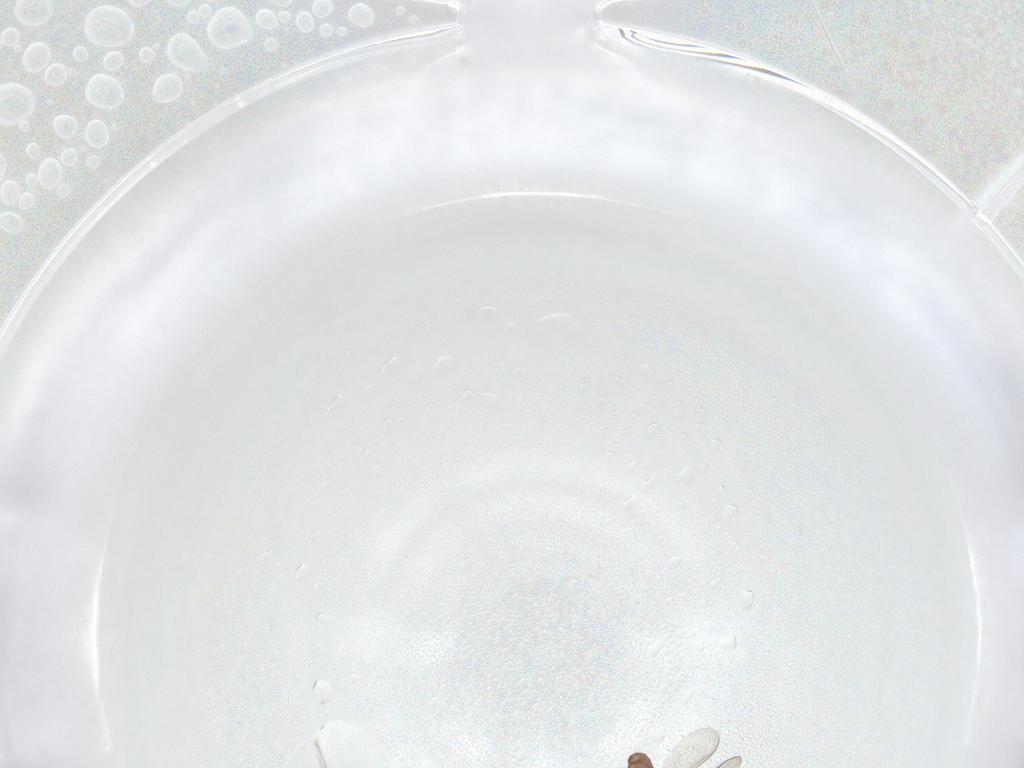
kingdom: Animalia
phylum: Arthropoda
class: Insecta
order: Diptera
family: Chironomidae
